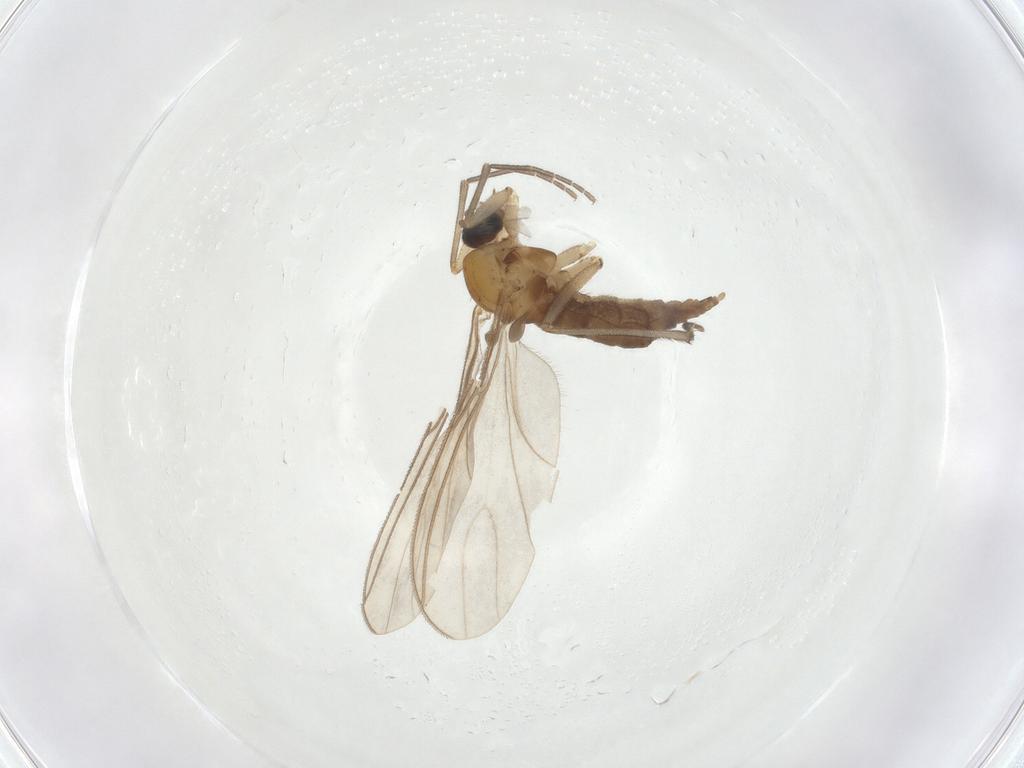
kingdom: Animalia
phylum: Arthropoda
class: Insecta
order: Diptera
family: Sciaridae
